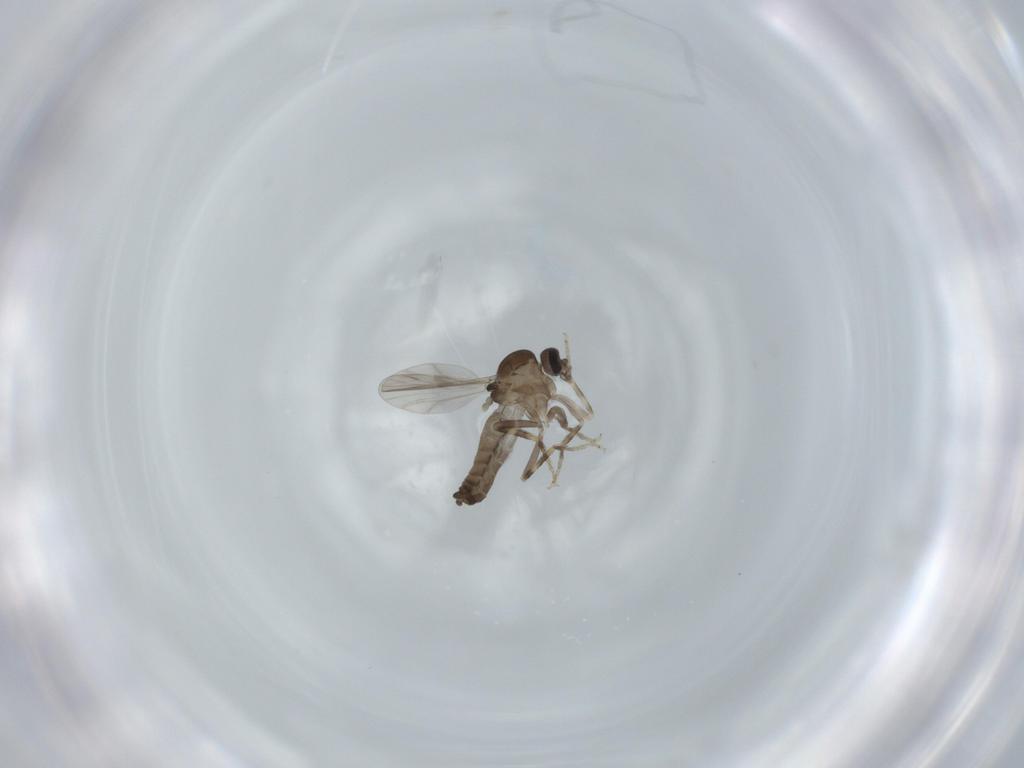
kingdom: Animalia
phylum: Arthropoda
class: Insecta
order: Diptera
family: Ceratopogonidae
